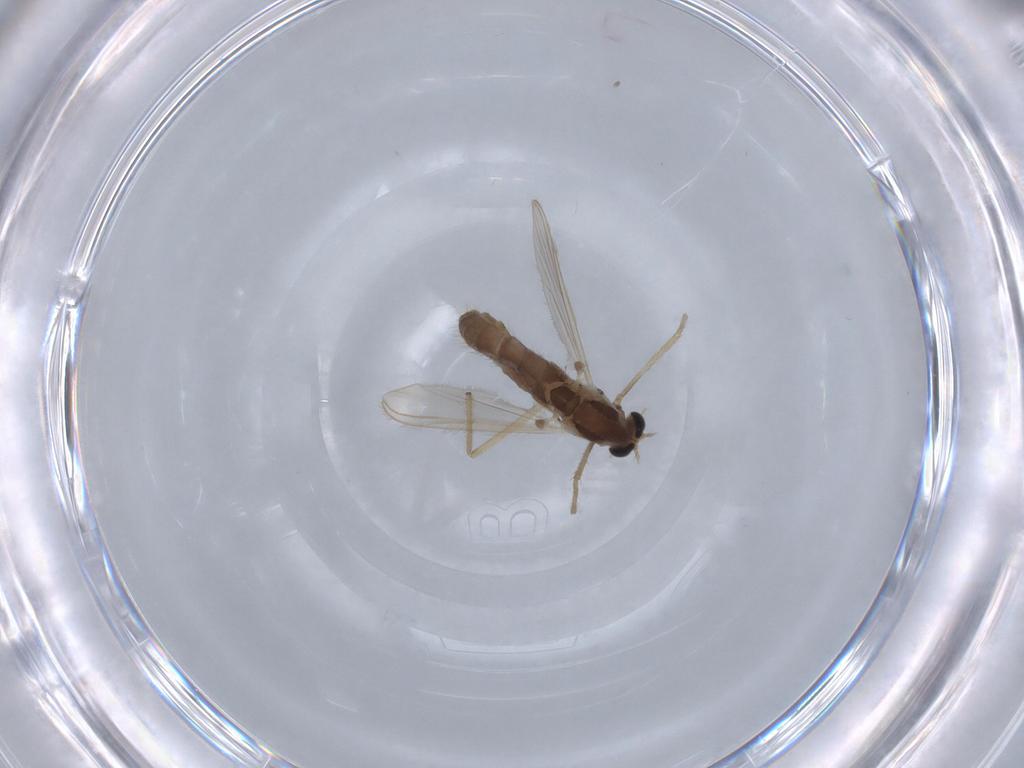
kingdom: Animalia
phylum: Arthropoda
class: Insecta
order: Diptera
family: Chironomidae
